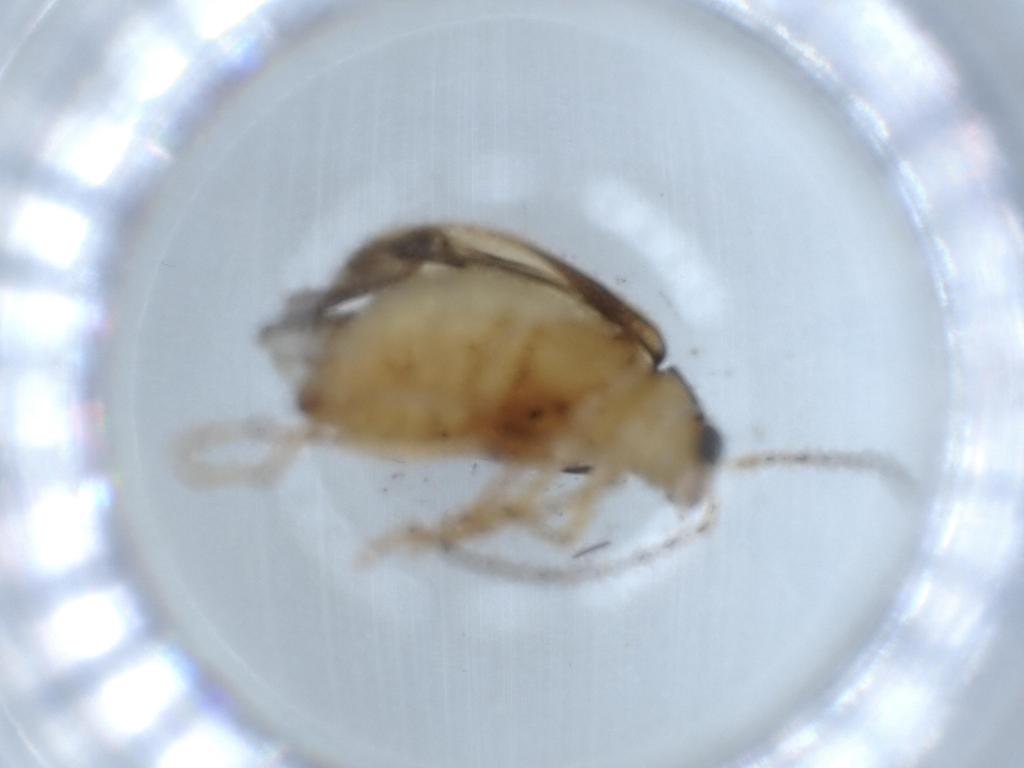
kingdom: Animalia
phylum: Arthropoda
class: Insecta
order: Coleoptera
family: Chrysomelidae
